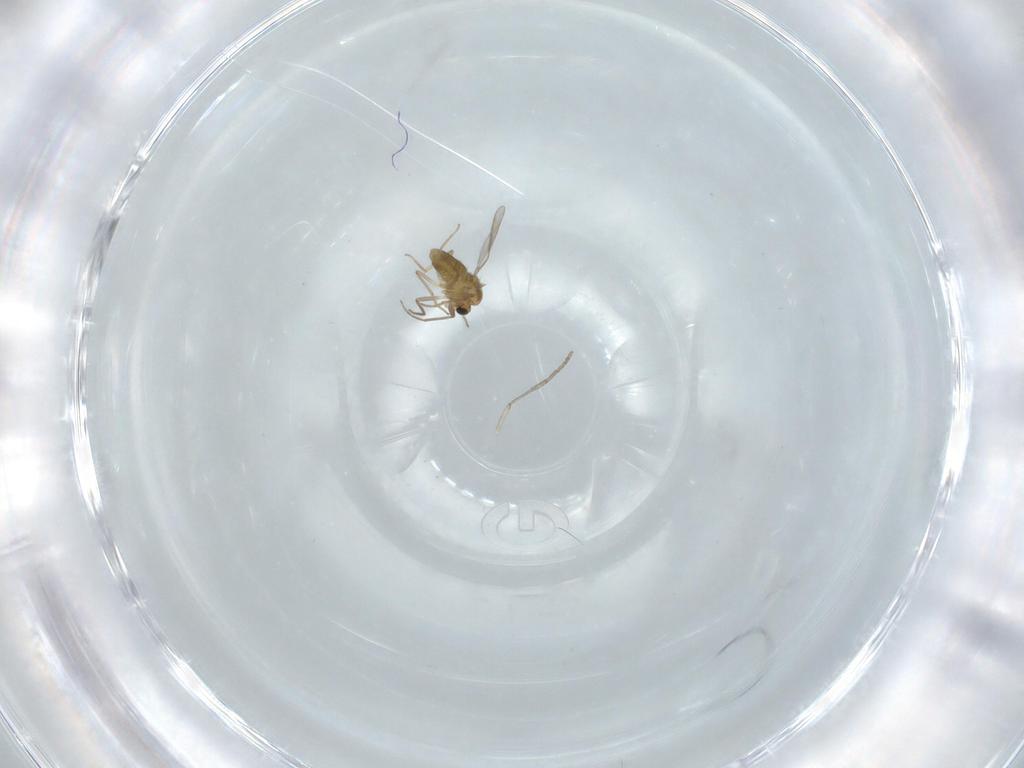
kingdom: Animalia
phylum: Arthropoda
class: Insecta
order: Diptera
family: Chironomidae
